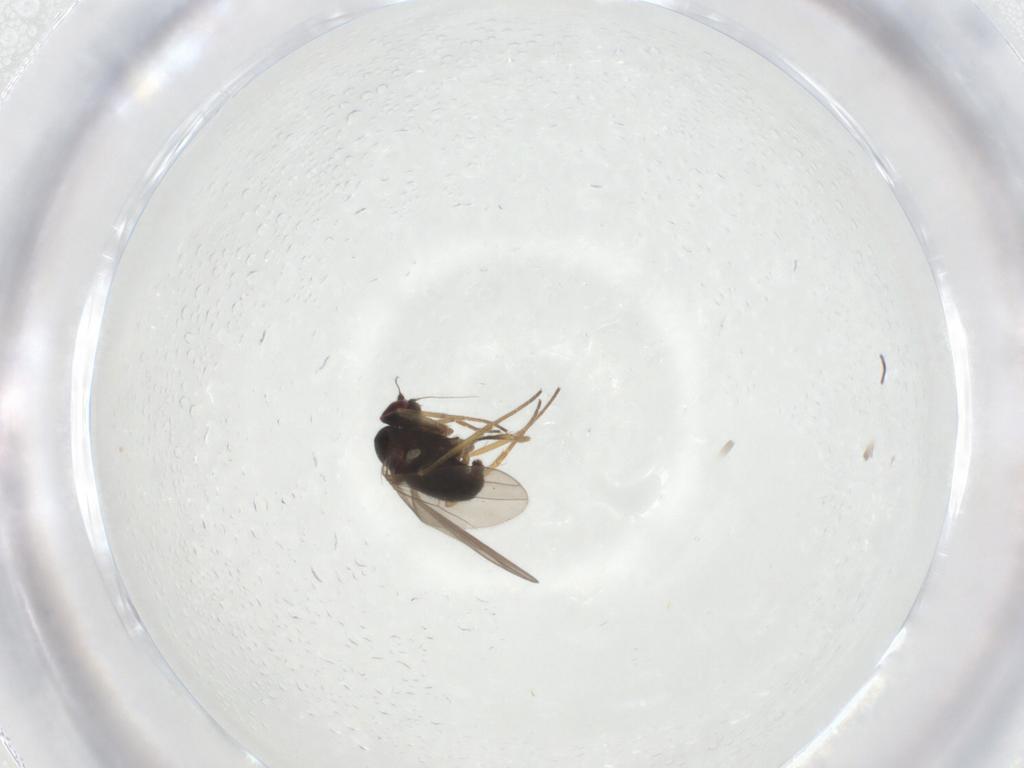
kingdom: Animalia
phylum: Arthropoda
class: Insecta
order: Diptera
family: Dolichopodidae
